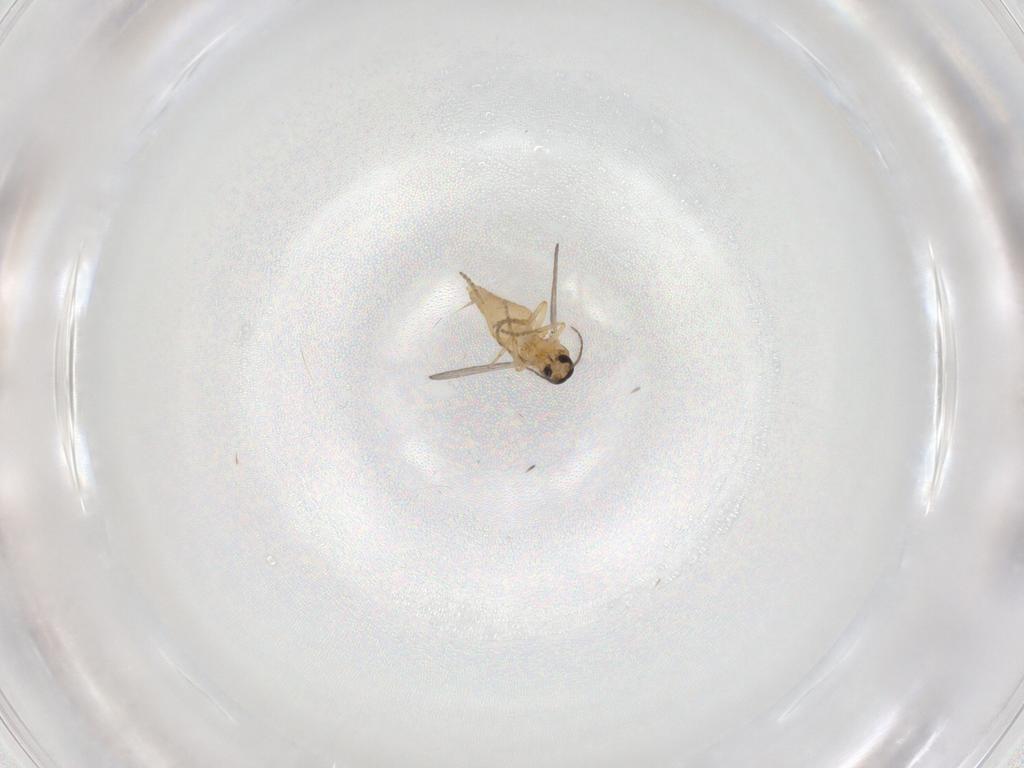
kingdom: Animalia
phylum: Arthropoda
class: Insecta
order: Diptera
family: Ceratopogonidae
